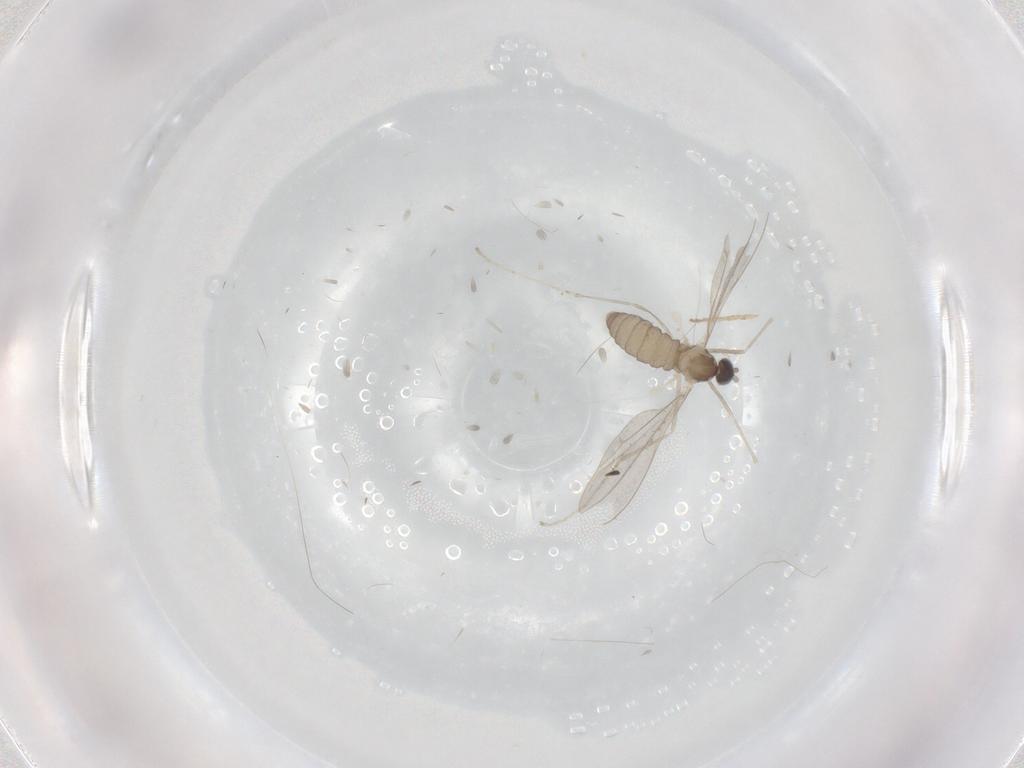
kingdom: Animalia
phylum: Arthropoda
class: Insecta
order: Diptera
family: Cecidomyiidae
